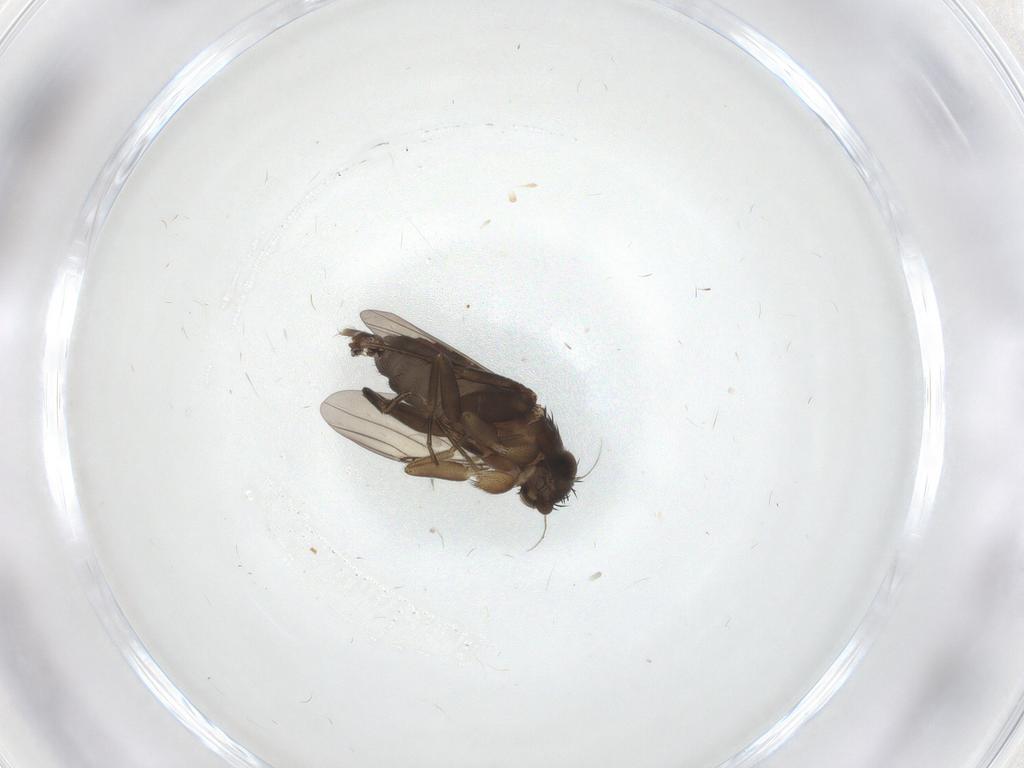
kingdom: Animalia
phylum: Arthropoda
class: Insecta
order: Diptera
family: Phoridae
